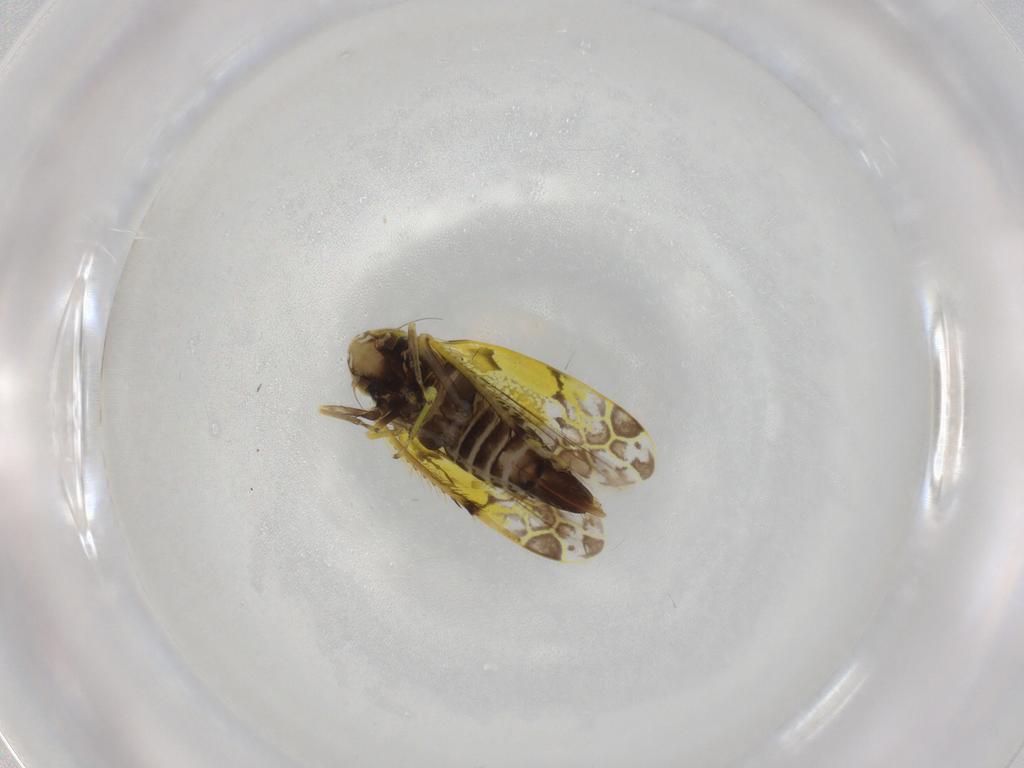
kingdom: Animalia
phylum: Arthropoda
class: Insecta
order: Hemiptera
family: Cicadellidae
